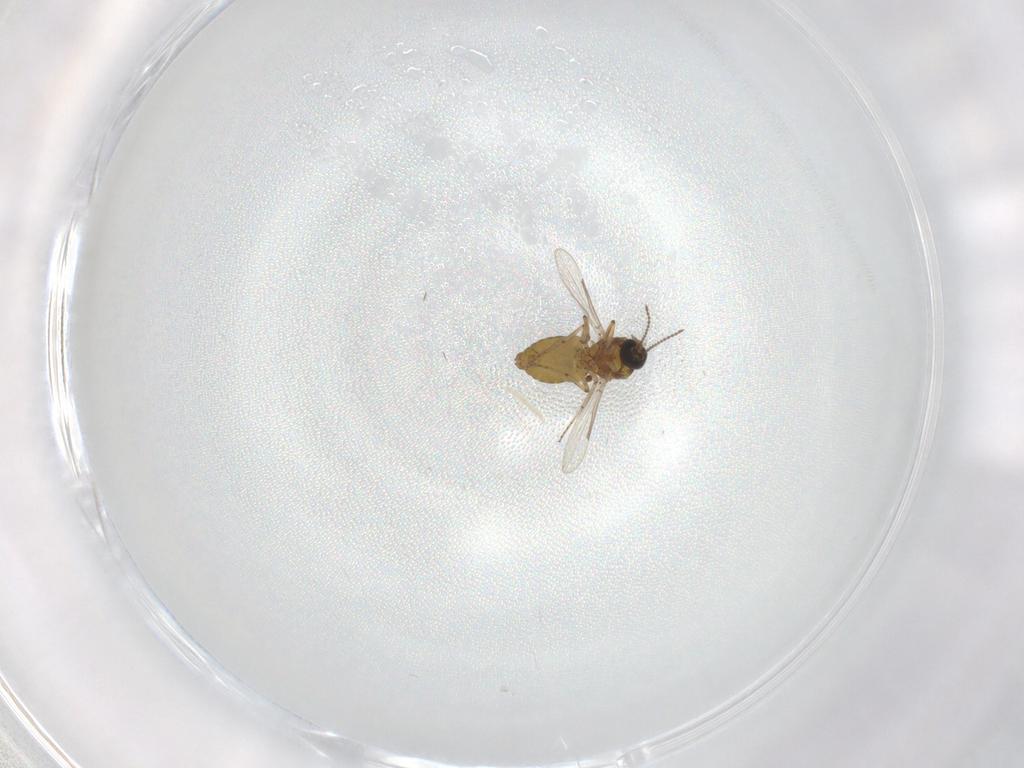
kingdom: Animalia
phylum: Arthropoda
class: Insecta
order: Diptera
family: Ceratopogonidae
